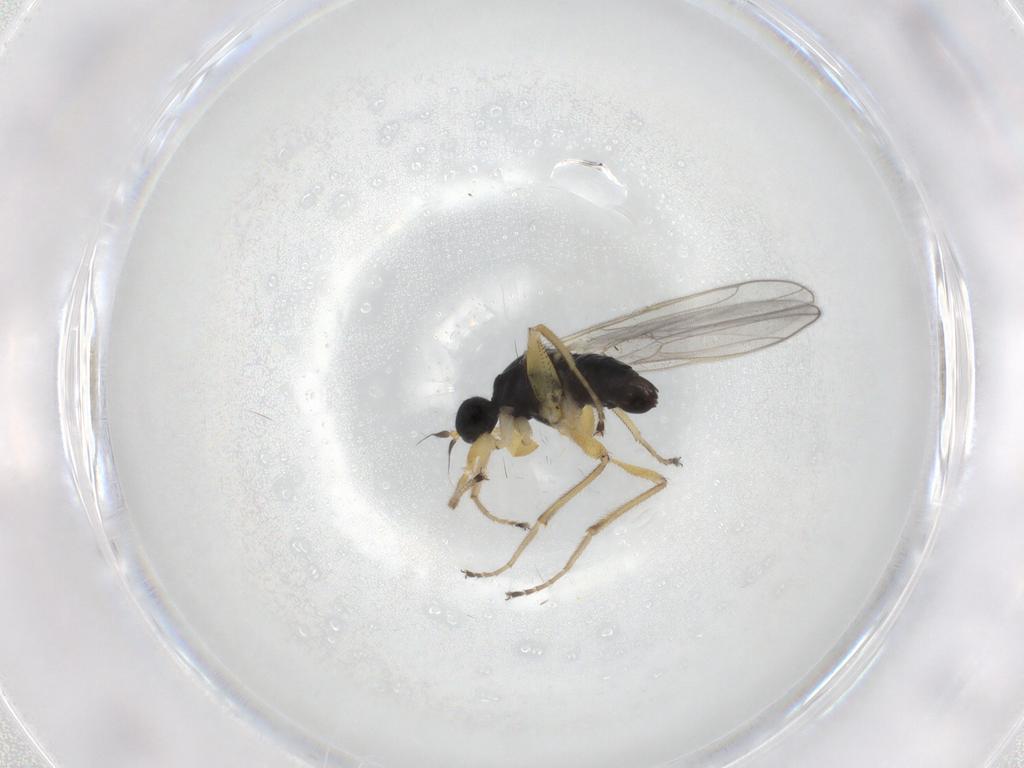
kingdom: Animalia
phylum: Arthropoda
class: Insecta
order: Diptera
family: Hybotidae
